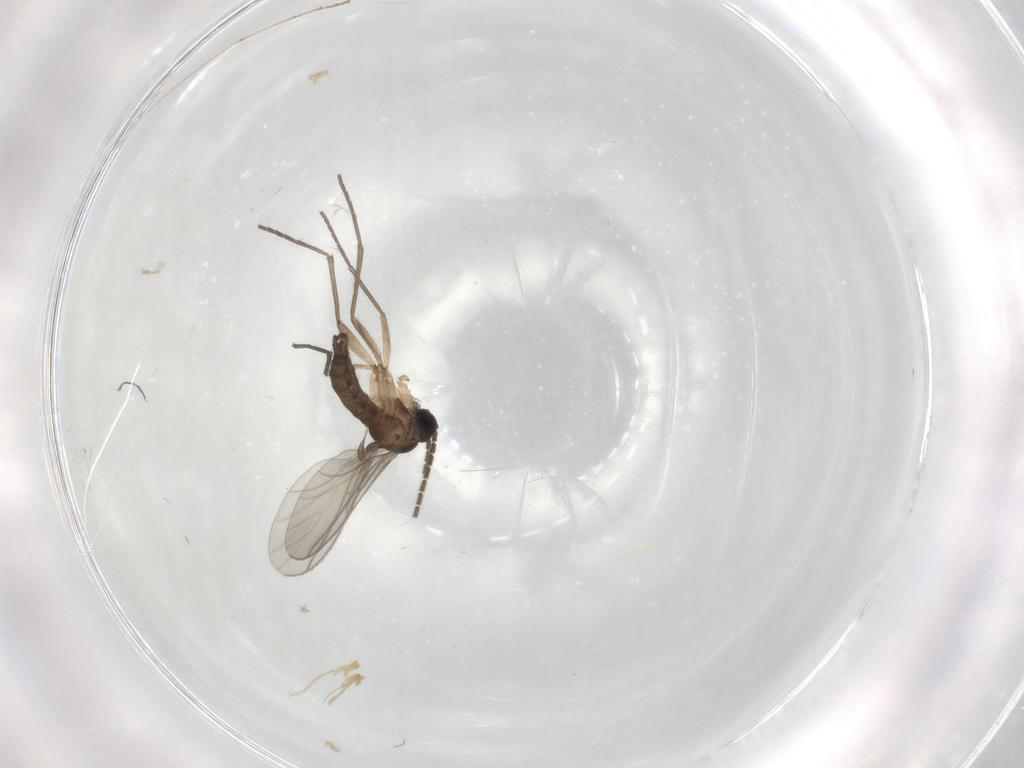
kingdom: Animalia
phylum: Arthropoda
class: Insecta
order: Diptera
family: Sciaridae
